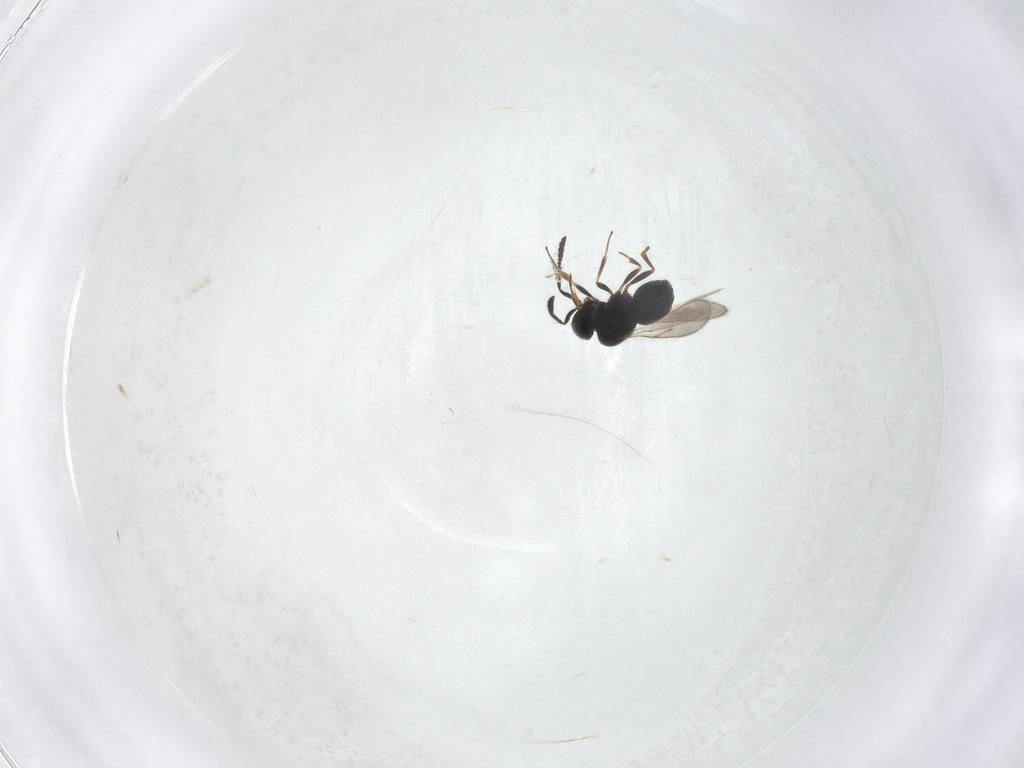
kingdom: Animalia
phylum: Arthropoda
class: Insecta
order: Hymenoptera
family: Scelionidae
